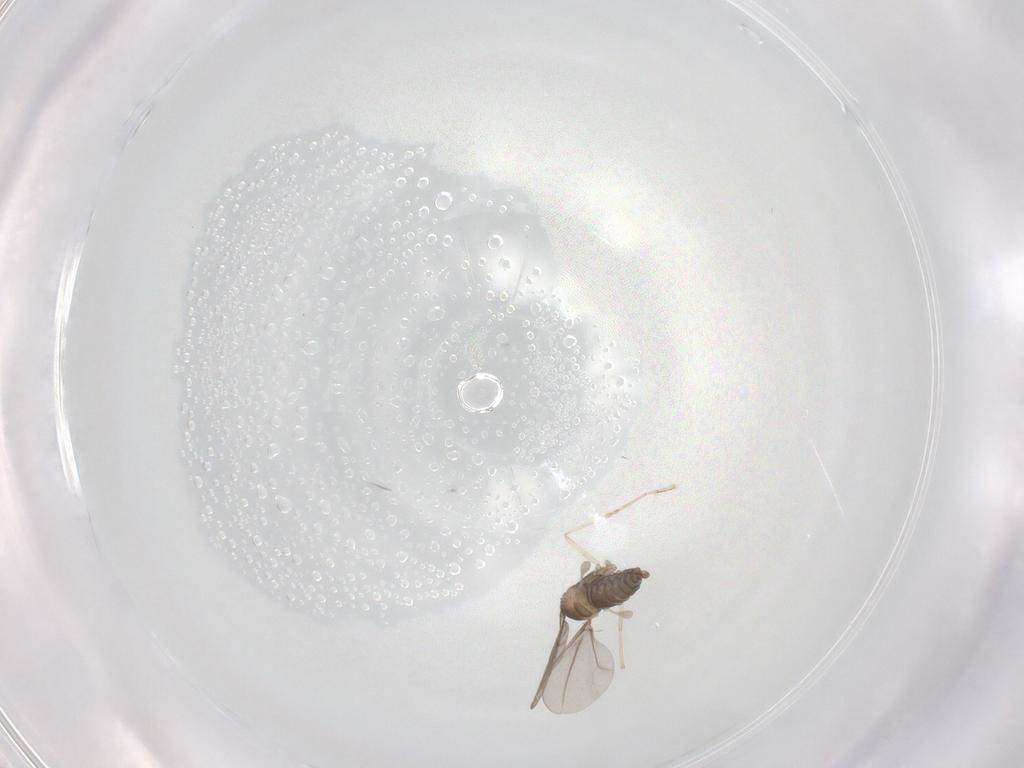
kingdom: Animalia
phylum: Arthropoda
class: Insecta
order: Diptera
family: Cecidomyiidae
